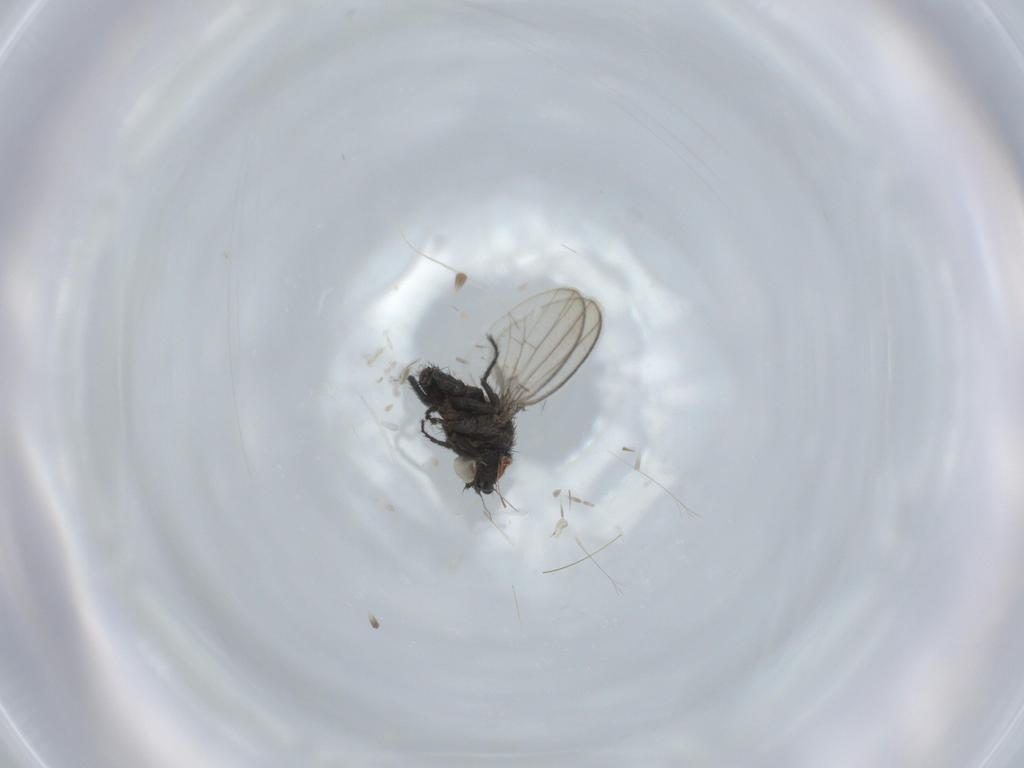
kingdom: Animalia
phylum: Arthropoda
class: Insecta
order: Diptera
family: Milichiidae
